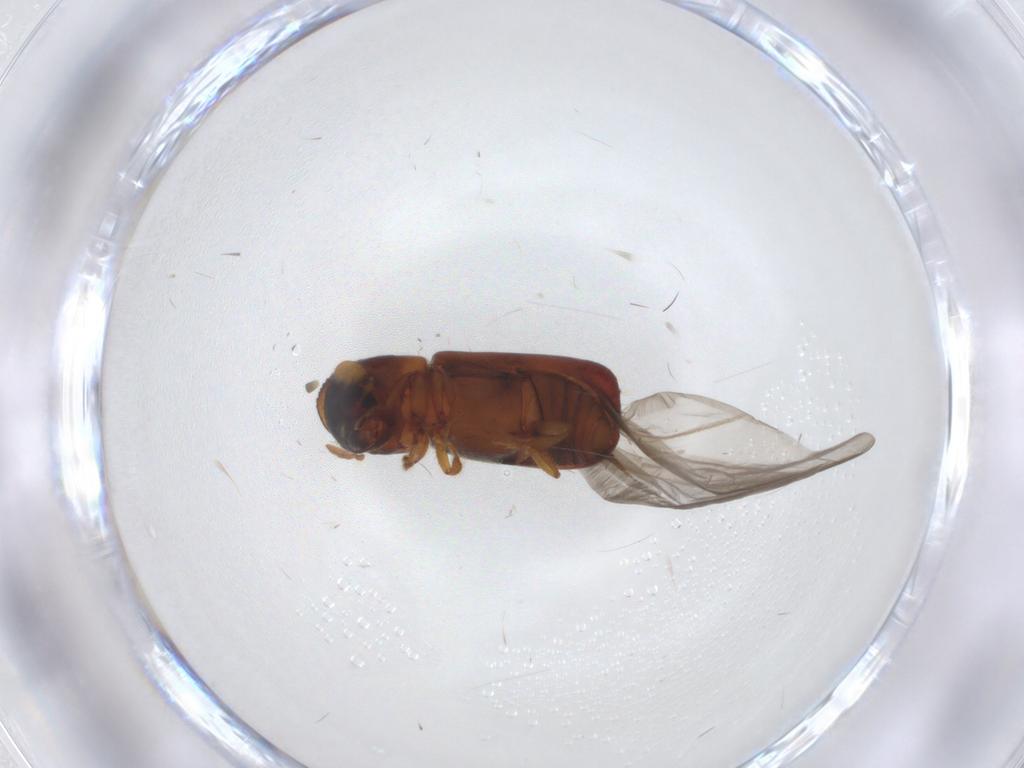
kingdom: Animalia
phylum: Arthropoda
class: Insecta
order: Coleoptera
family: Curculionidae
